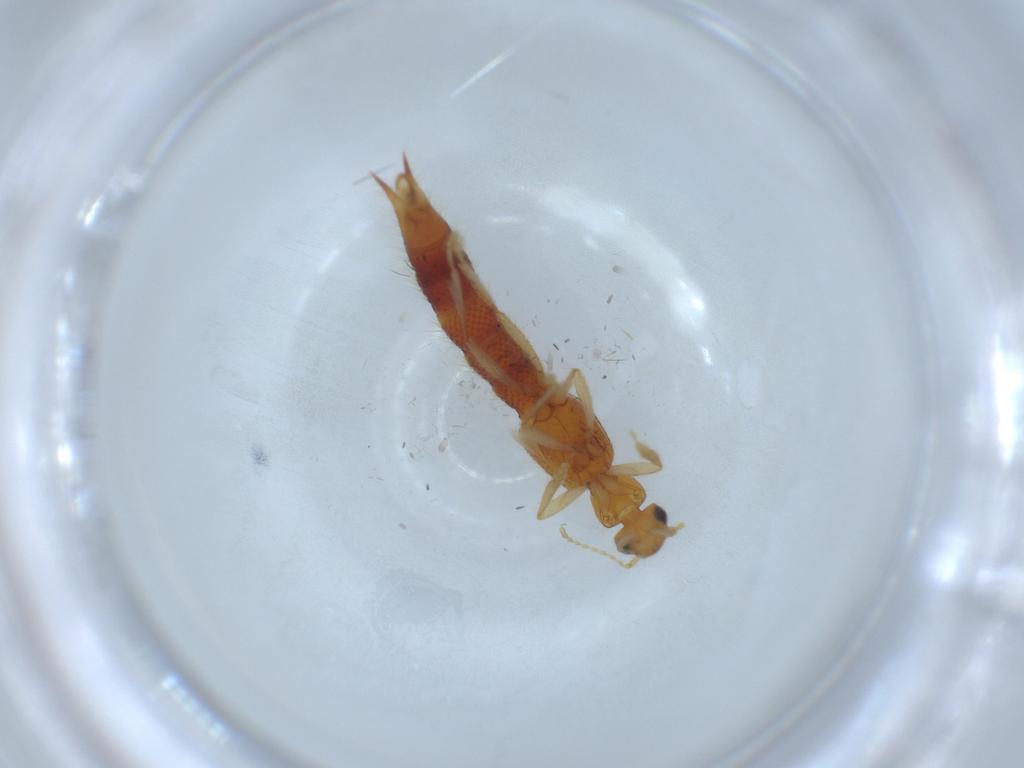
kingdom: Animalia
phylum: Arthropoda
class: Insecta
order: Coleoptera
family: Staphylinidae
